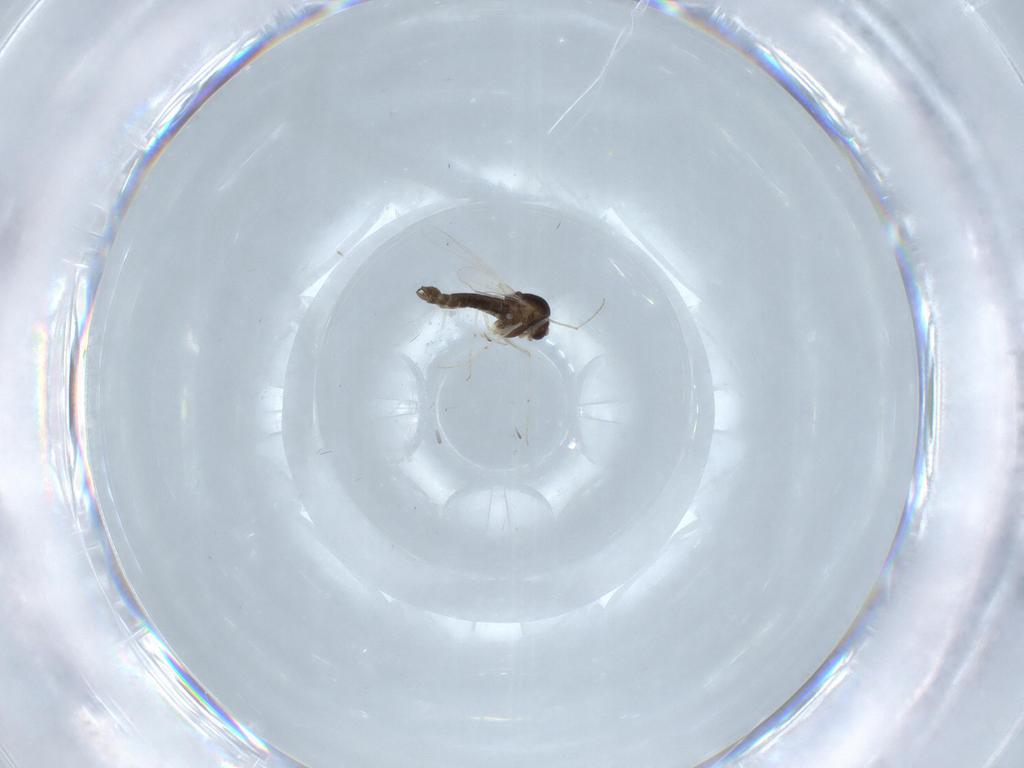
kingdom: Animalia
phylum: Arthropoda
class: Insecta
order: Diptera
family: Chironomidae
